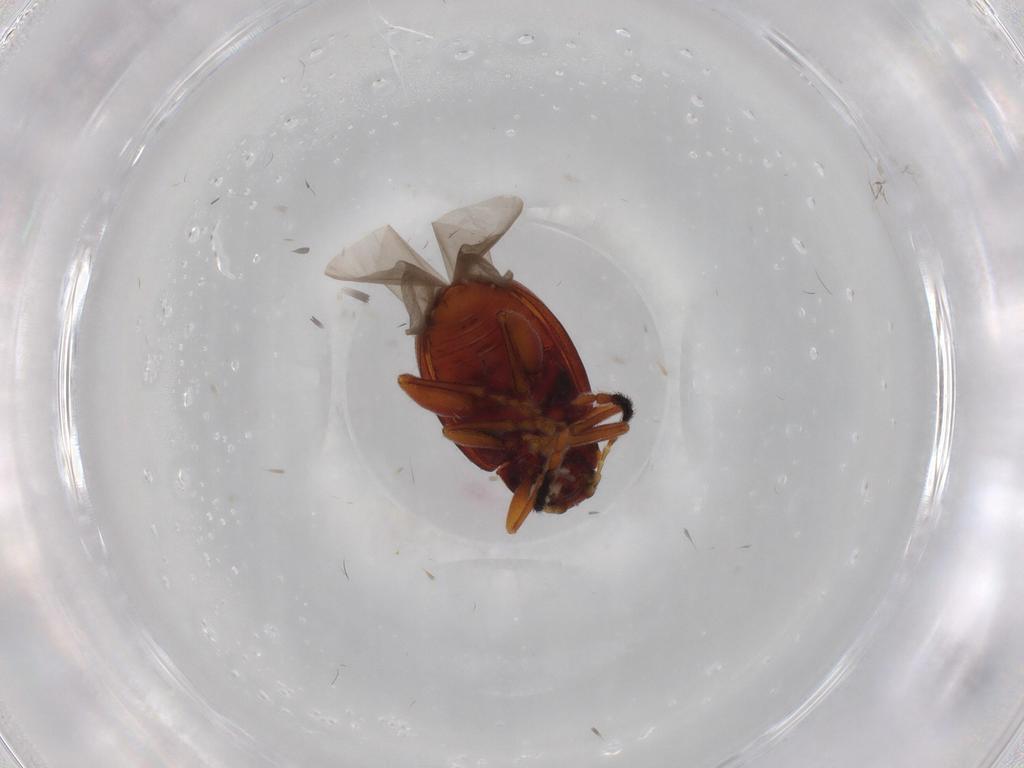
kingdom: Animalia
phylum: Arthropoda
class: Insecta
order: Coleoptera
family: Chrysomelidae
